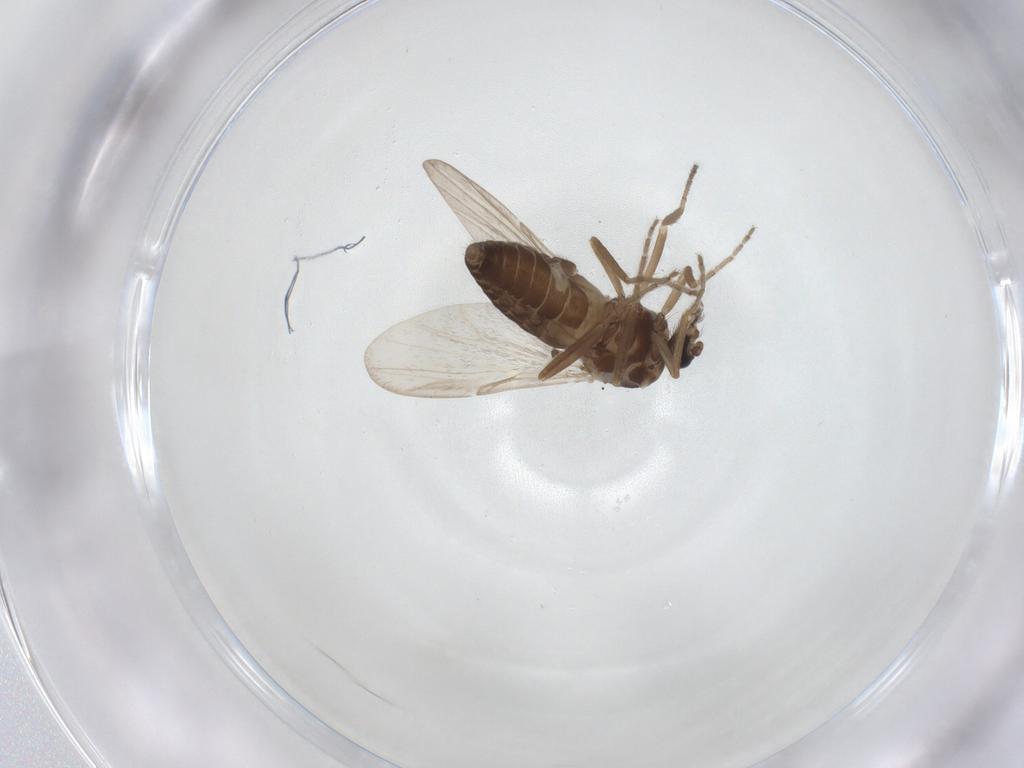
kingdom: Animalia
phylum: Arthropoda
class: Insecta
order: Diptera
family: Ceratopogonidae
